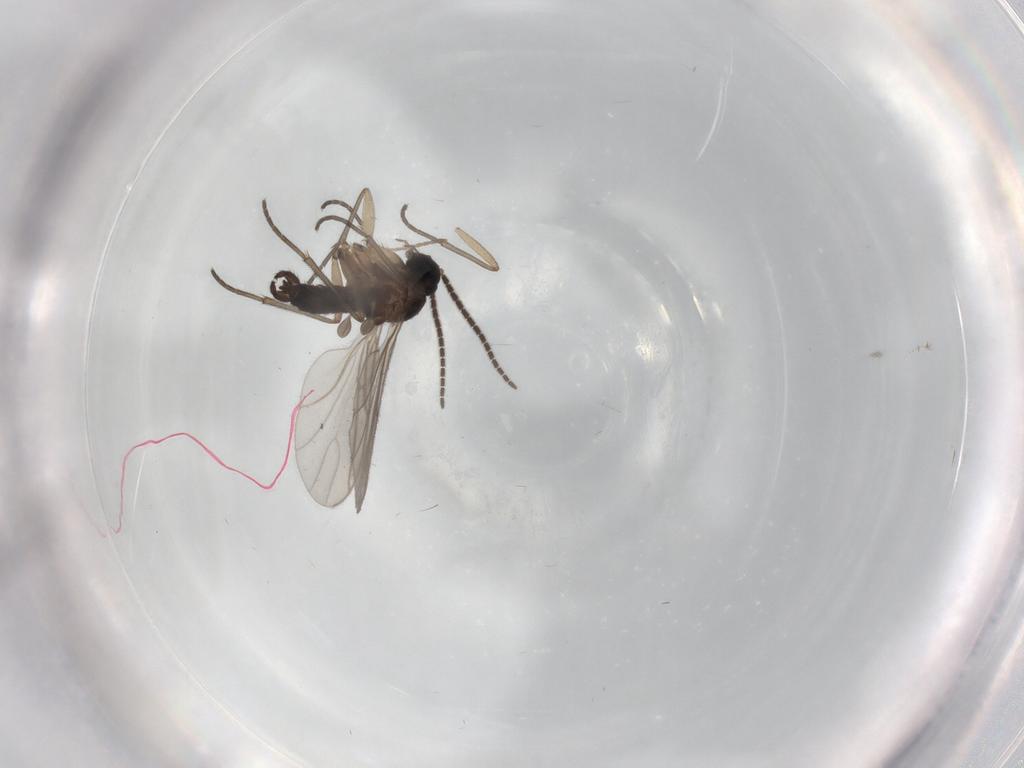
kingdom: Animalia
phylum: Arthropoda
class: Insecta
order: Diptera
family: Sciaridae
